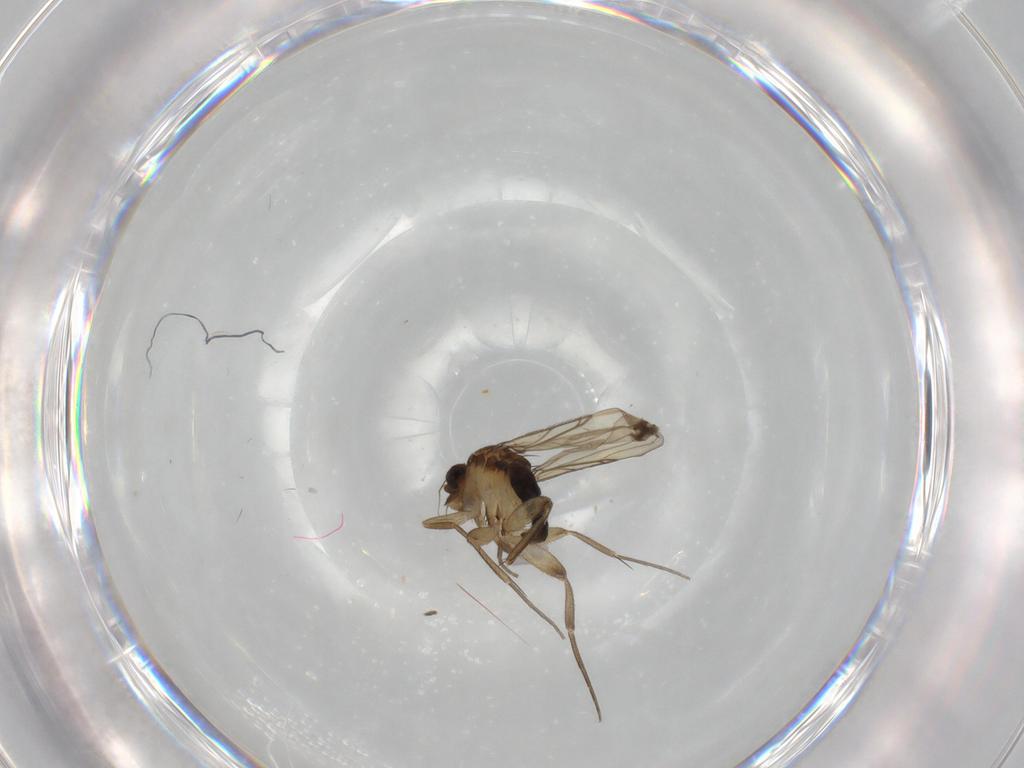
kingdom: Animalia
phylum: Arthropoda
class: Insecta
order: Diptera
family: Phoridae
